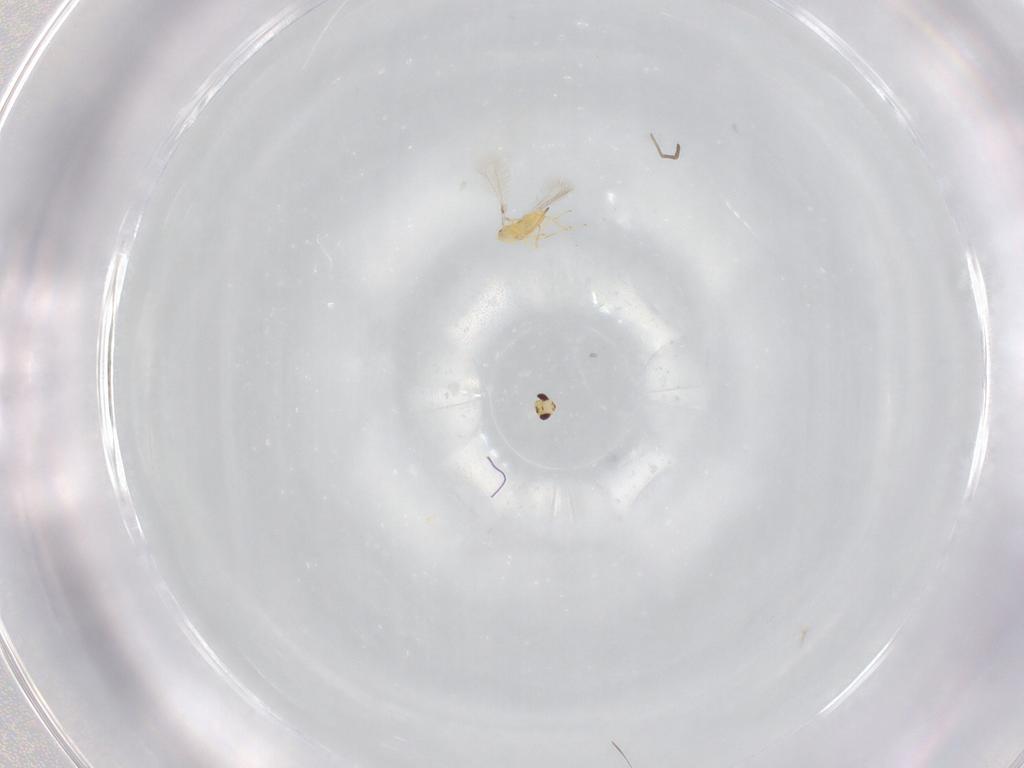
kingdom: Animalia
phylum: Arthropoda
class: Insecta
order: Hymenoptera
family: Mymaridae
